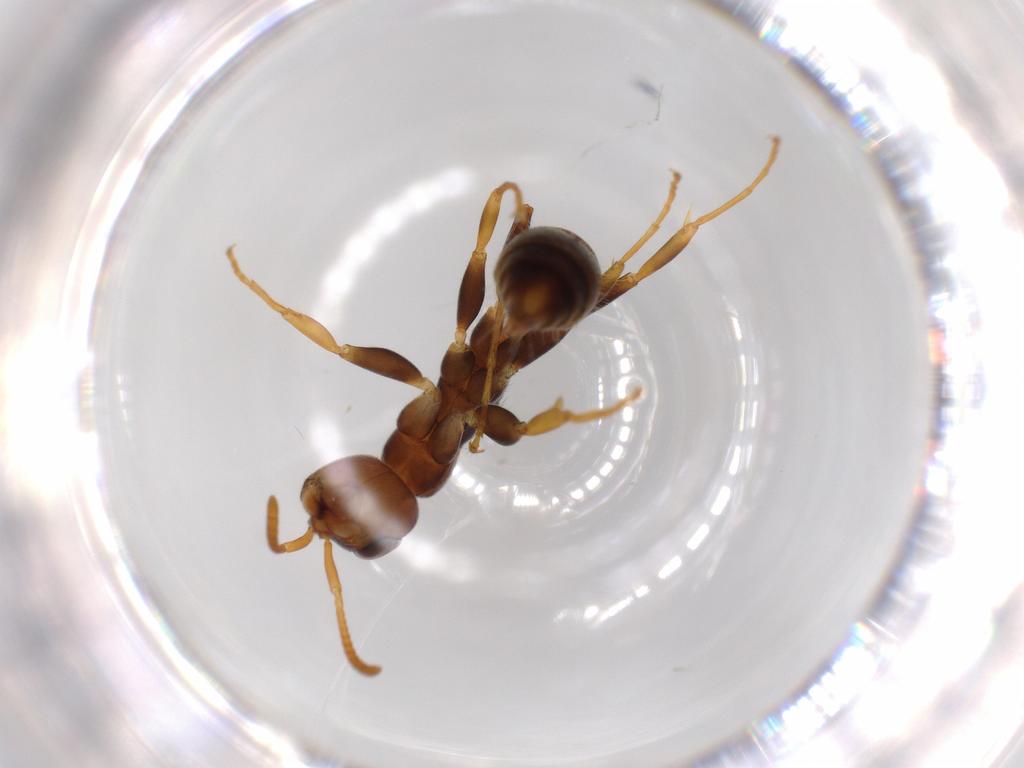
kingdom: Animalia
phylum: Arthropoda
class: Insecta
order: Hymenoptera
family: Formicidae
